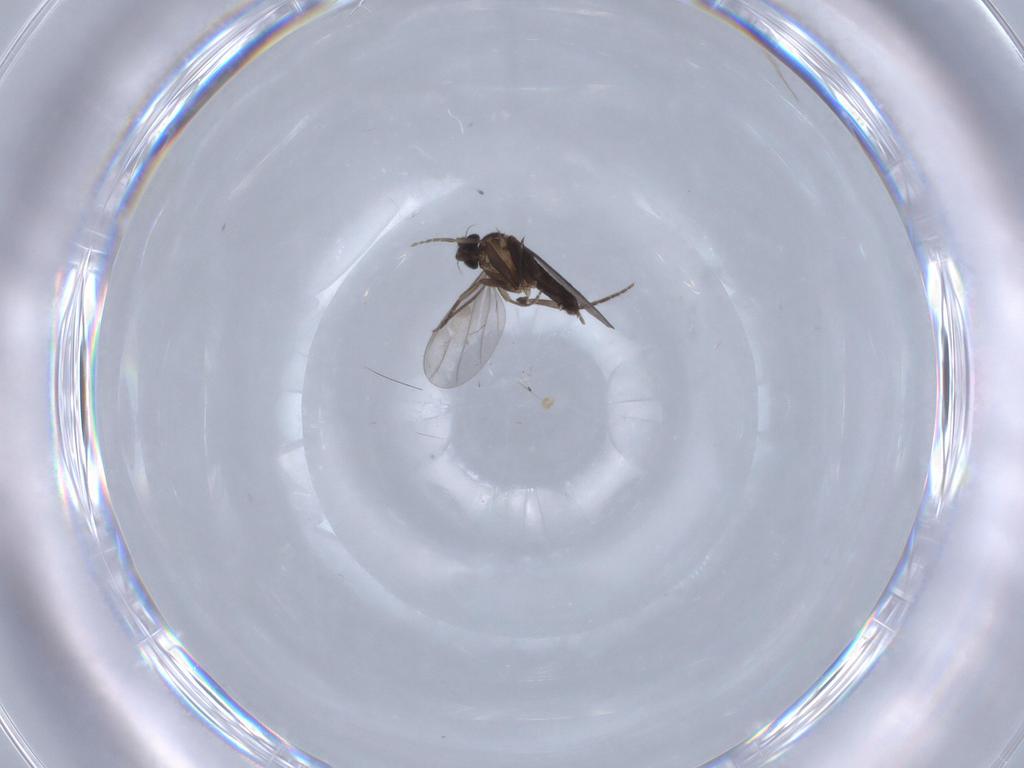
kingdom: Animalia
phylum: Arthropoda
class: Insecta
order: Diptera
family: Phoridae
